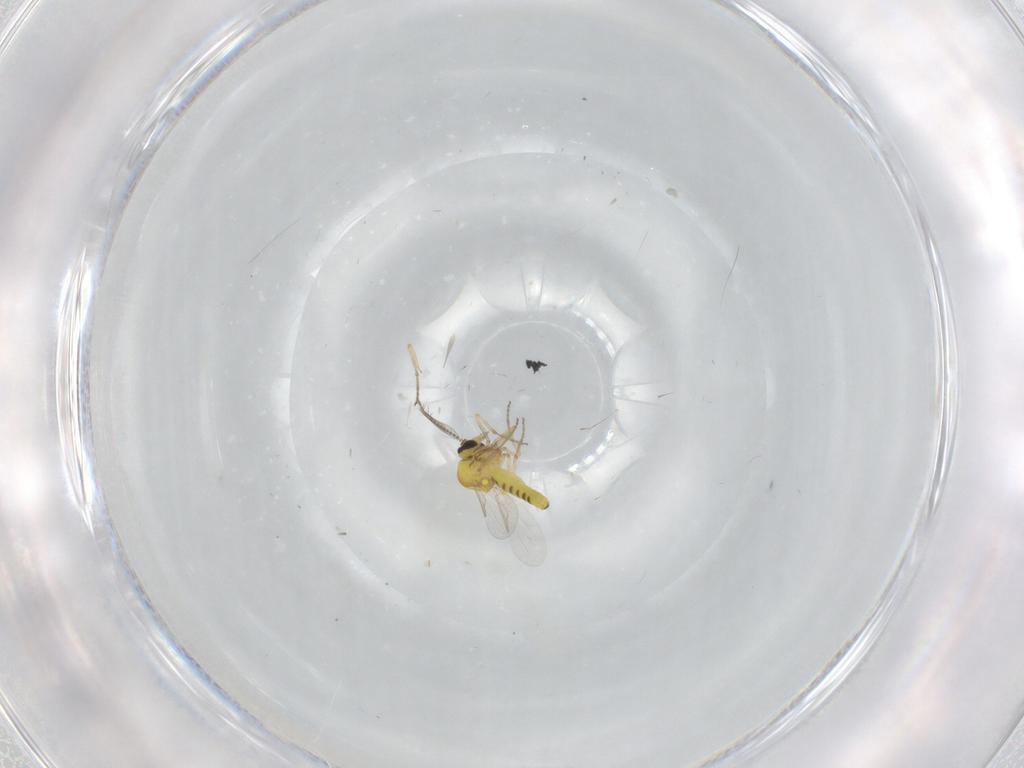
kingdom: Animalia
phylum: Arthropoda
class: Insecta
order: Diptera
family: Ceratopogonidae
